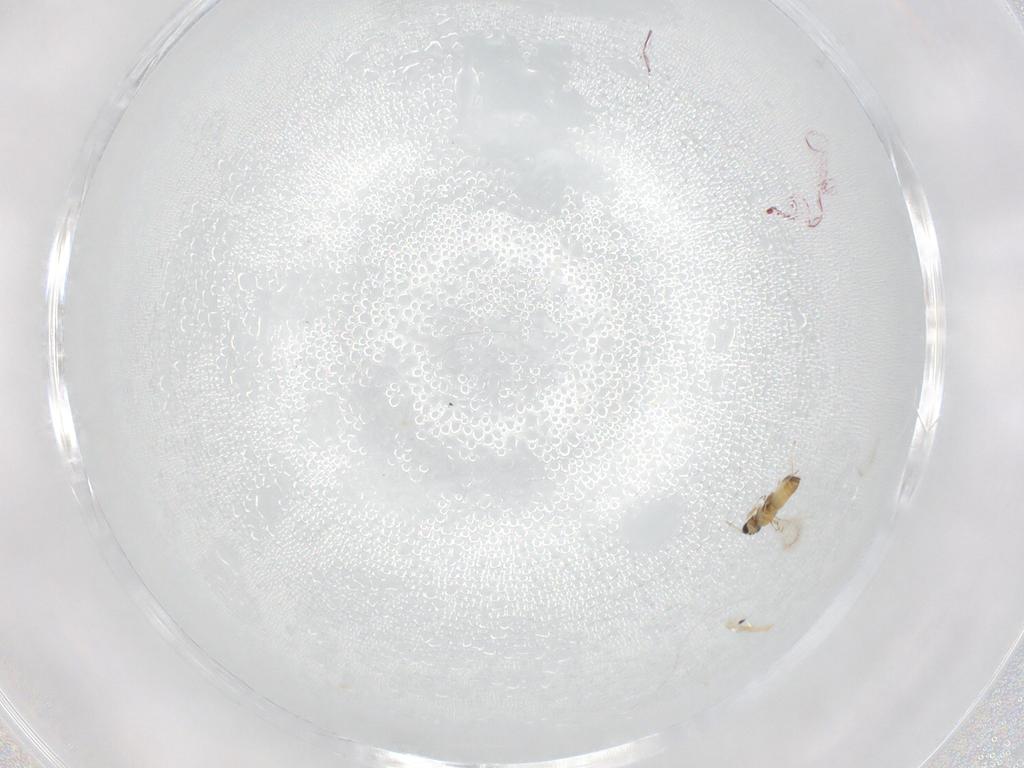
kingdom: Animalia
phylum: Arthropoda
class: Insecta
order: Hymenoptera
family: Trichogrammatidae
